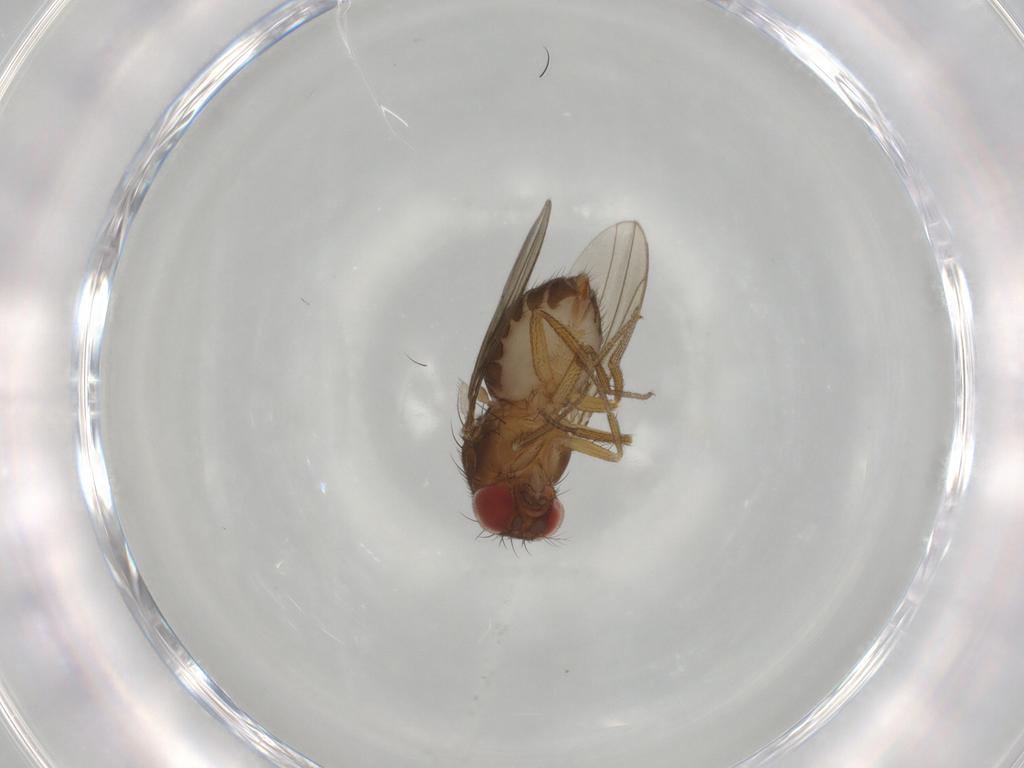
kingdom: Animalia
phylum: Arthropoda
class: Insecta
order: Diptera
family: Drosophilidae
